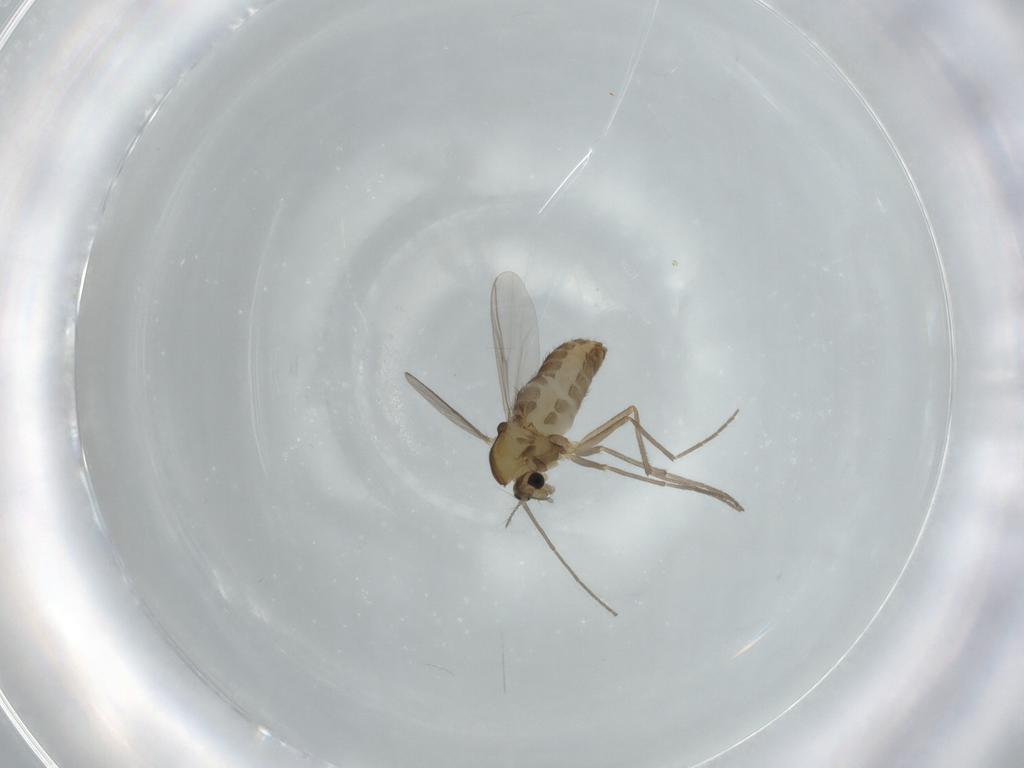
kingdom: Animalia
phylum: Arthropoda
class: Insecta
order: Diptera
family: Chironomidae
